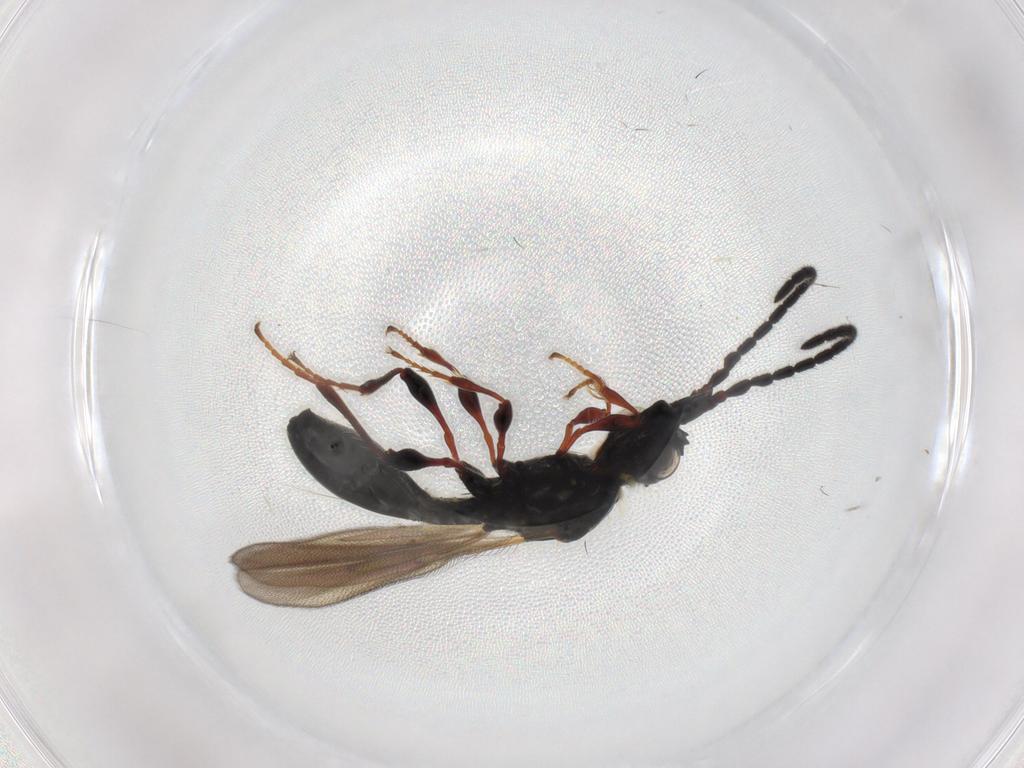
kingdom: Animalia
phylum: Arthropoda
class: Insecta
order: Hymenoptera
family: Diapriidae
